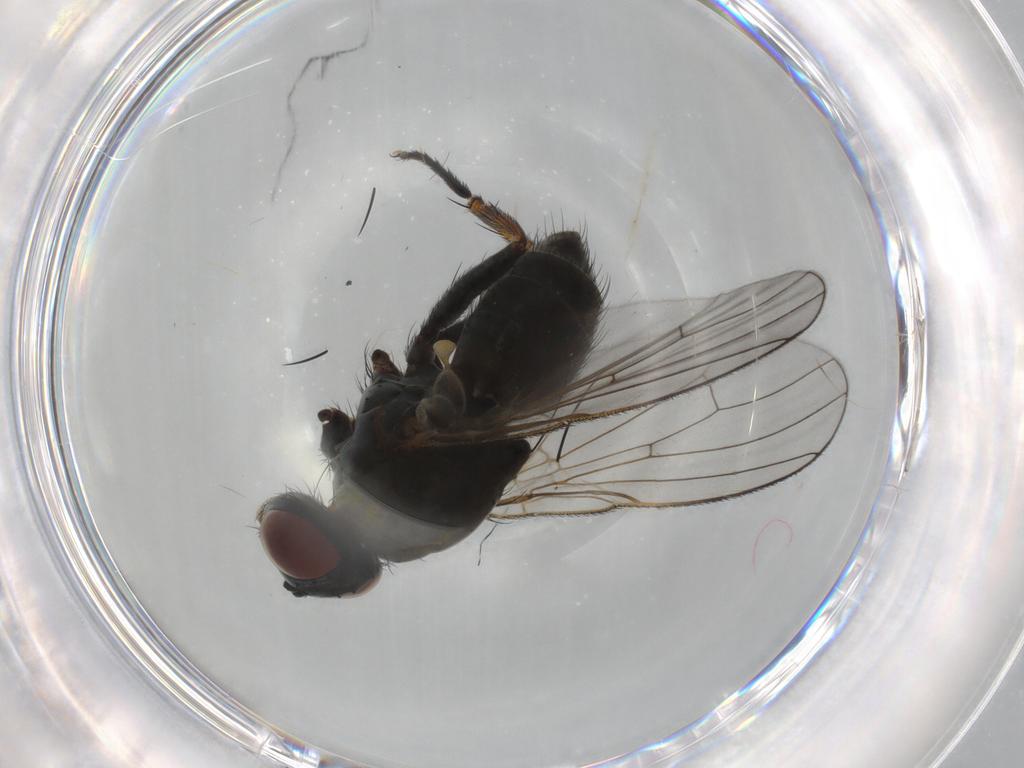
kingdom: Animalia
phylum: Arthropoda
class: Insecta
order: Diptera
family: Muscidae
